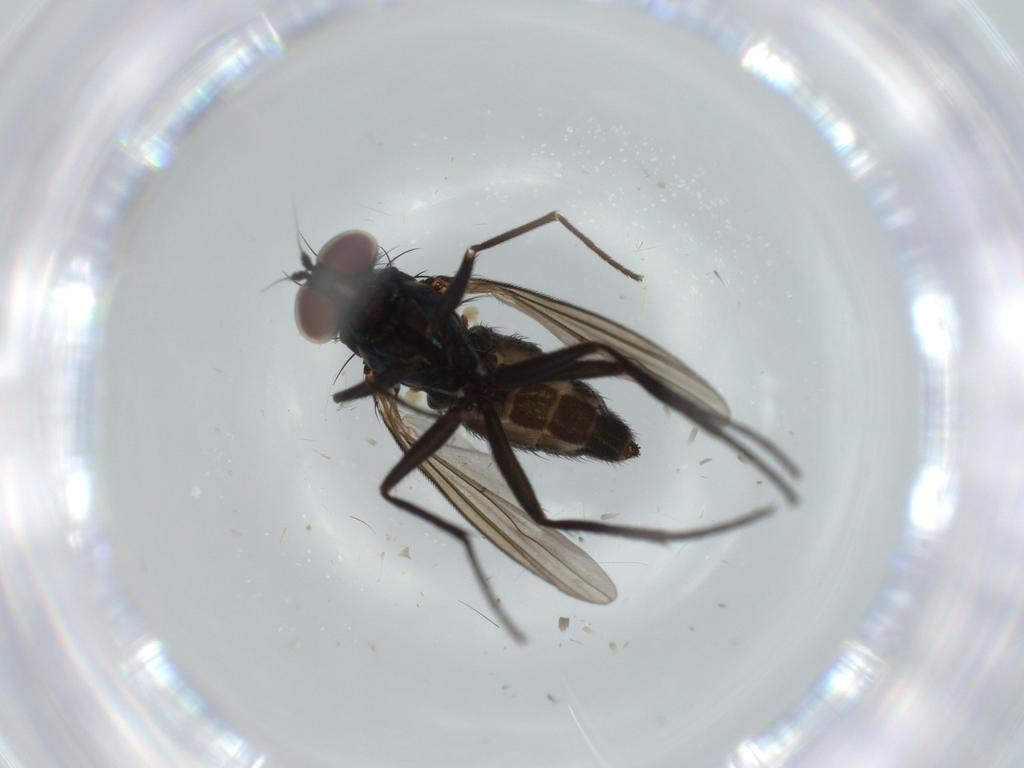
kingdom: Animalia
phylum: Arthropoda
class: Insecta
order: Diptera
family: Dolichopodidae
